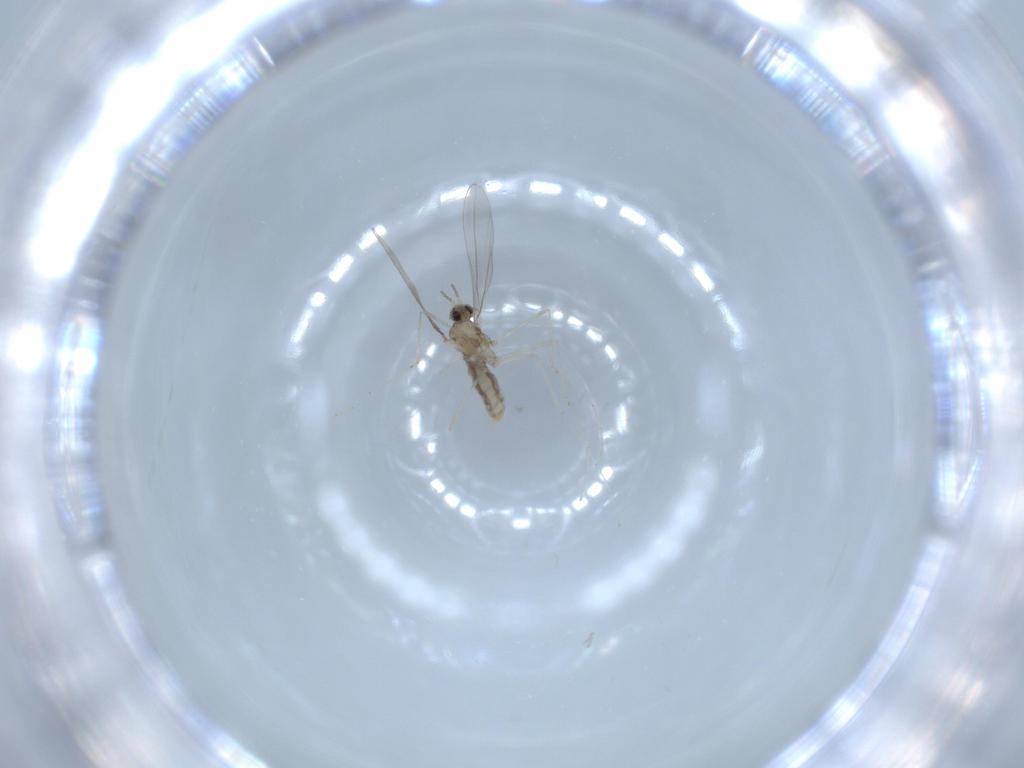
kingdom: Animalia
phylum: Arthropoda
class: Insecta
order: Diptera
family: Cecidomyiidae
